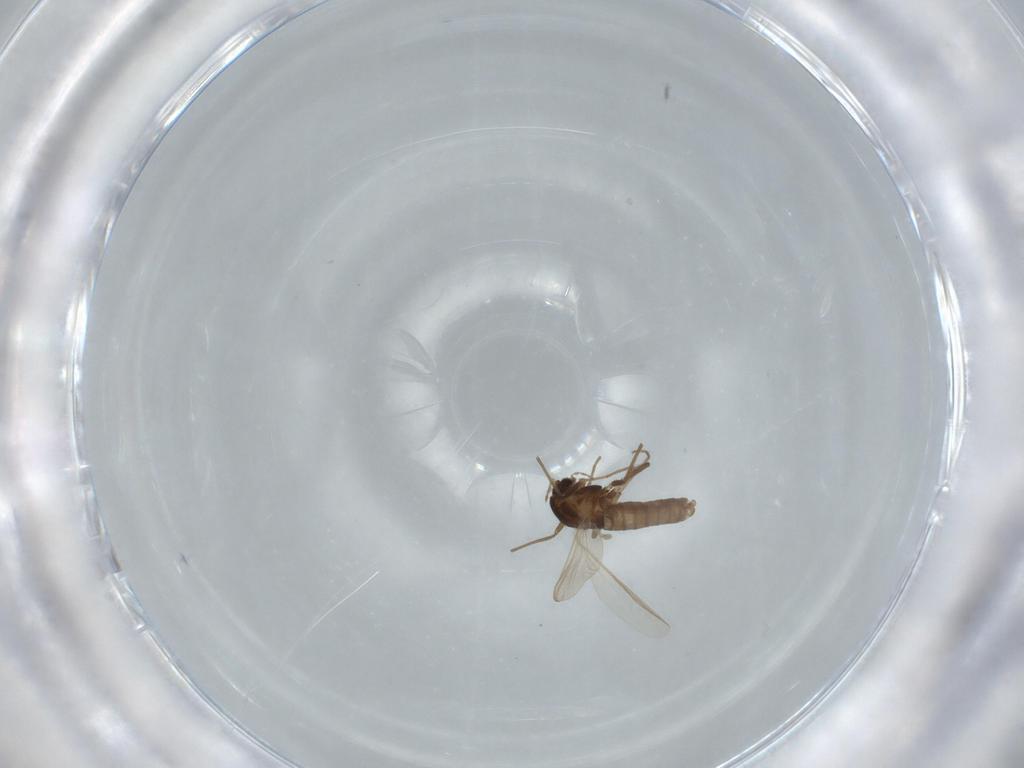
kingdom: Animalia
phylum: Arthropoda
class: Insecta
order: Diptera
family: Chironomidae
